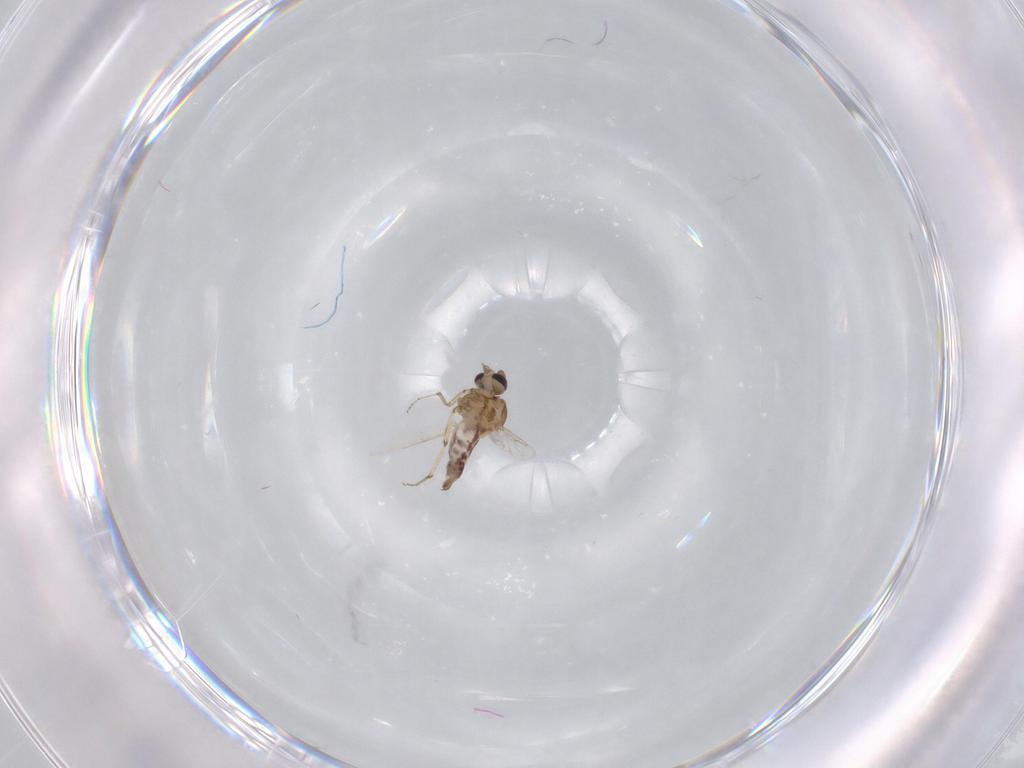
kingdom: Animalia
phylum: Arthropoda
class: Insecta
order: Diptera
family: Ceratopogonidae
